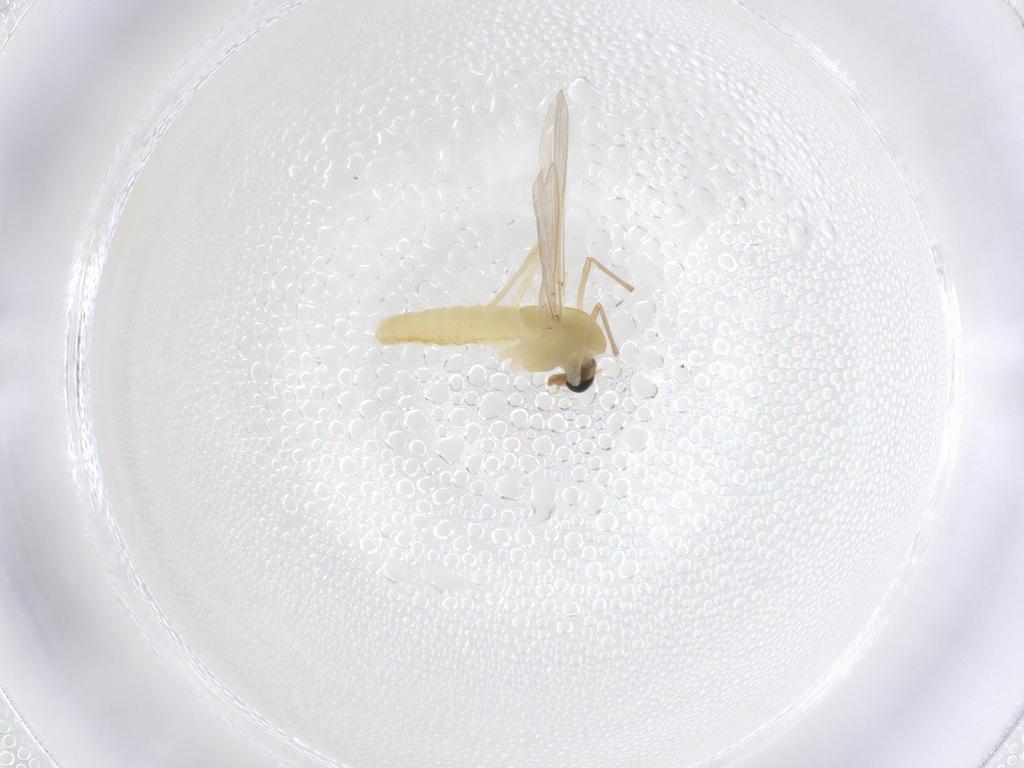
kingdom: Animalia
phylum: Arthropoda
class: Insecta
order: Diptera
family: Chironomidae
